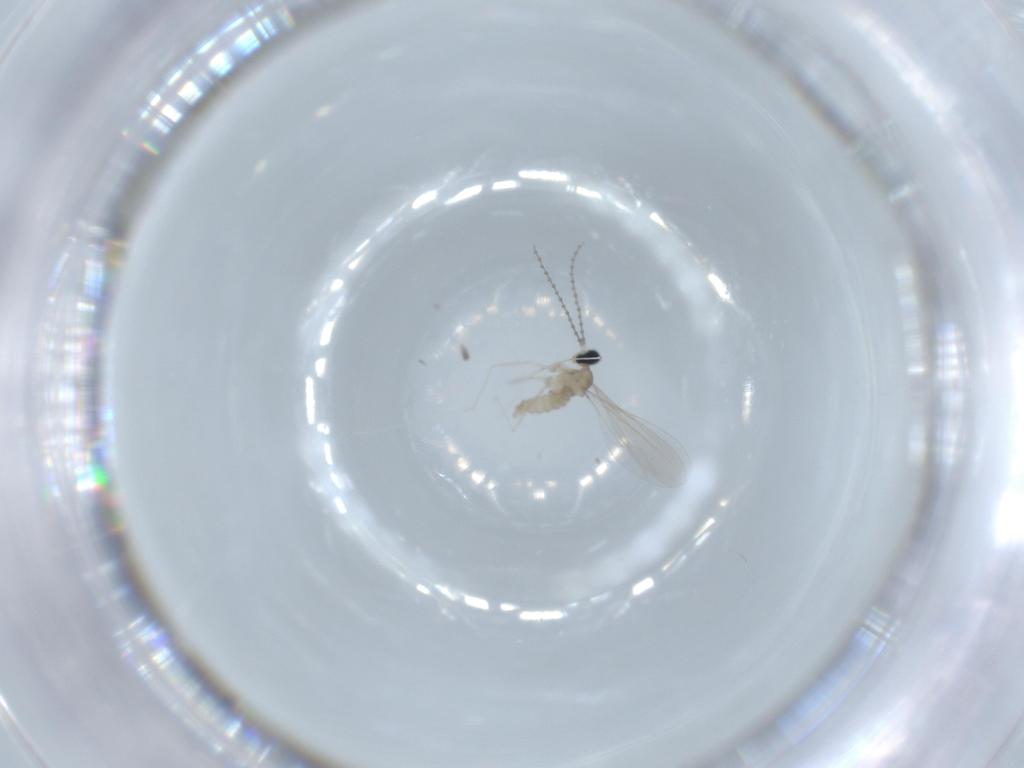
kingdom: Animalia
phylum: Arthropoda
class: Insecta
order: Diptera
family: Cecidomyiidae
